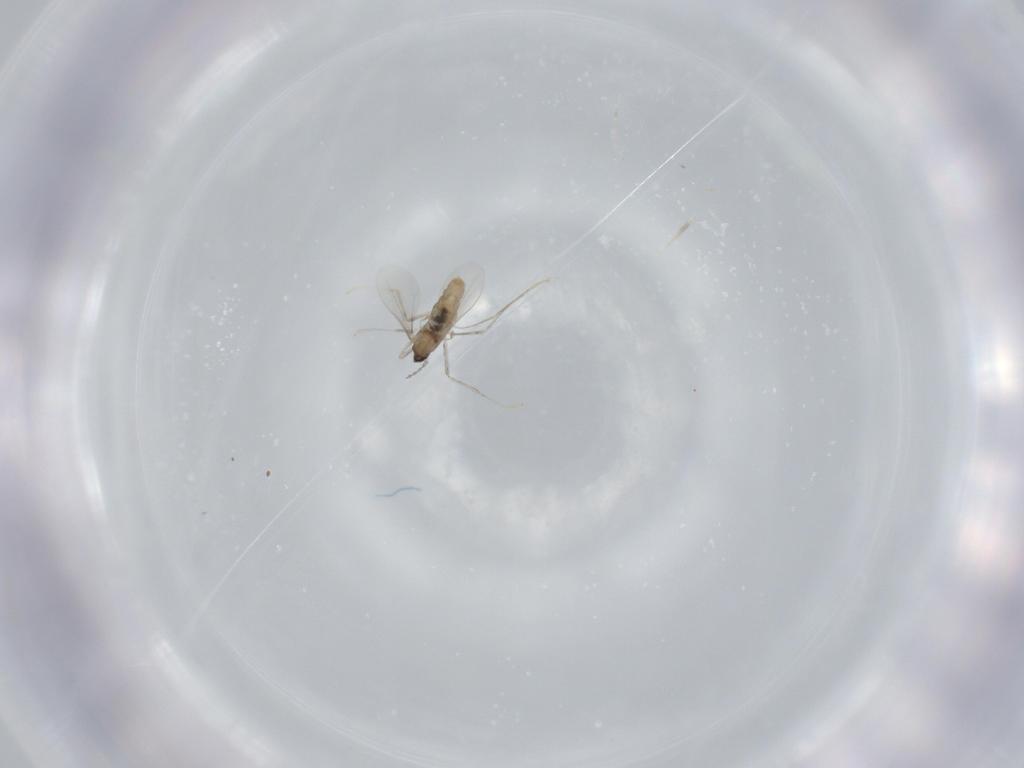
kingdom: Animalia
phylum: Arthropoda
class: Insecta
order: Diptera
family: Cecidomyiidae
